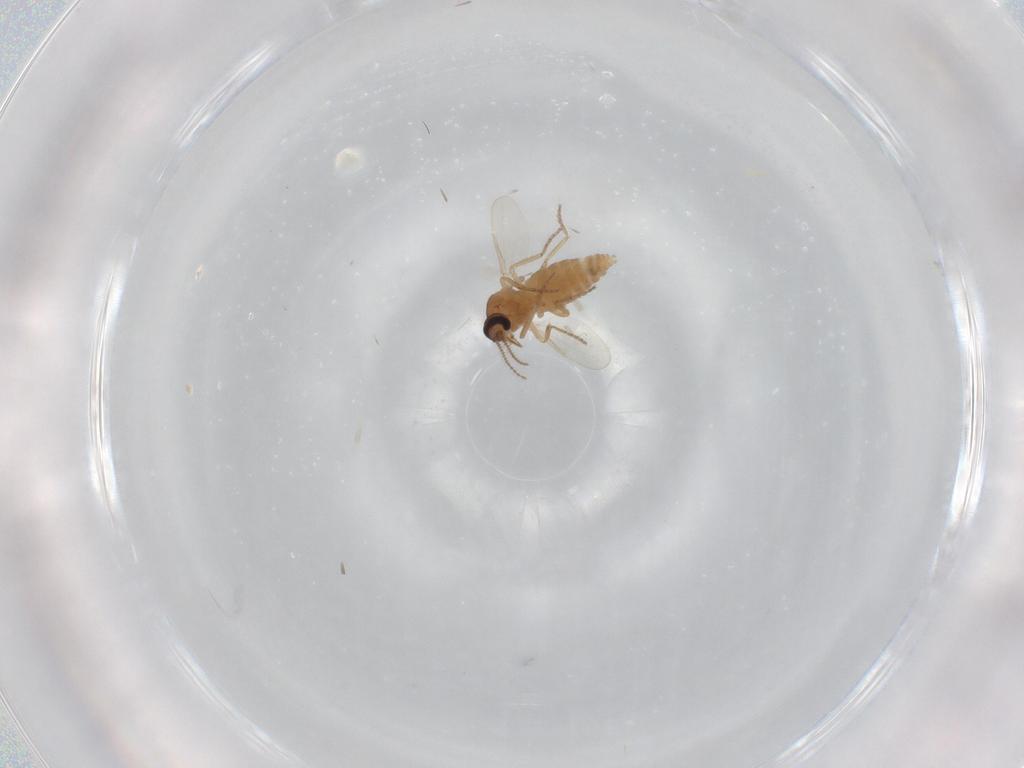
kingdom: Animalia
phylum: Arthropoda
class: Insecta
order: Diptera
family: Ceratopogonidae
